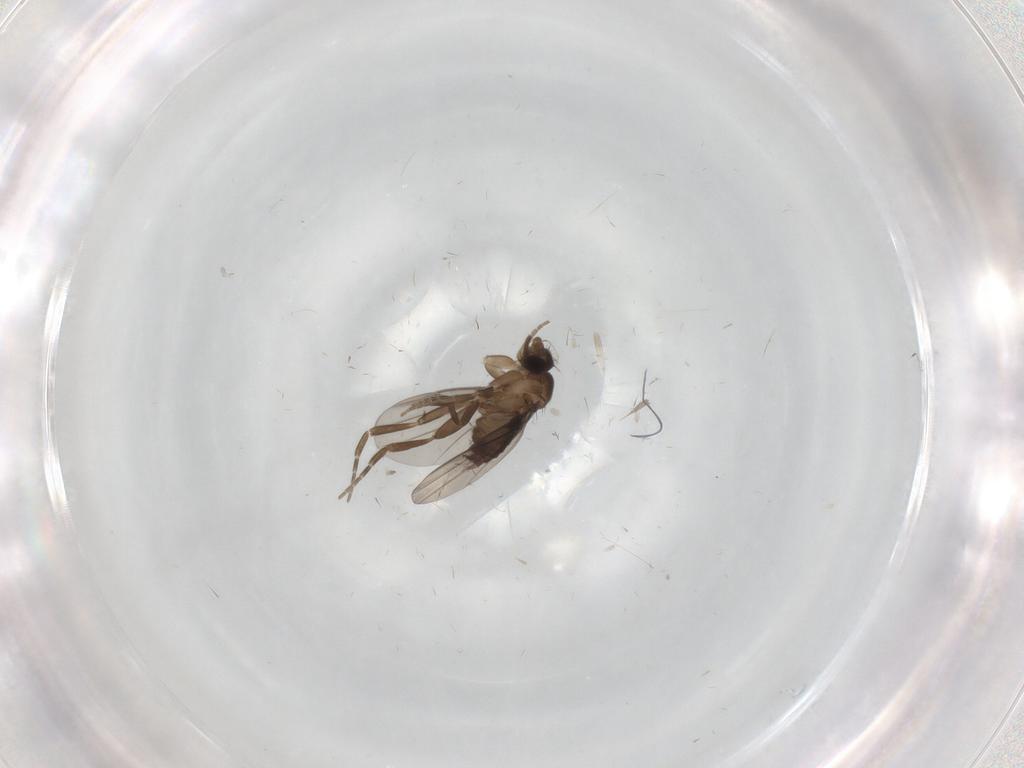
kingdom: Animalia
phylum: Arthropoda
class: Insecta
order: Diptera
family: Sciaridae
